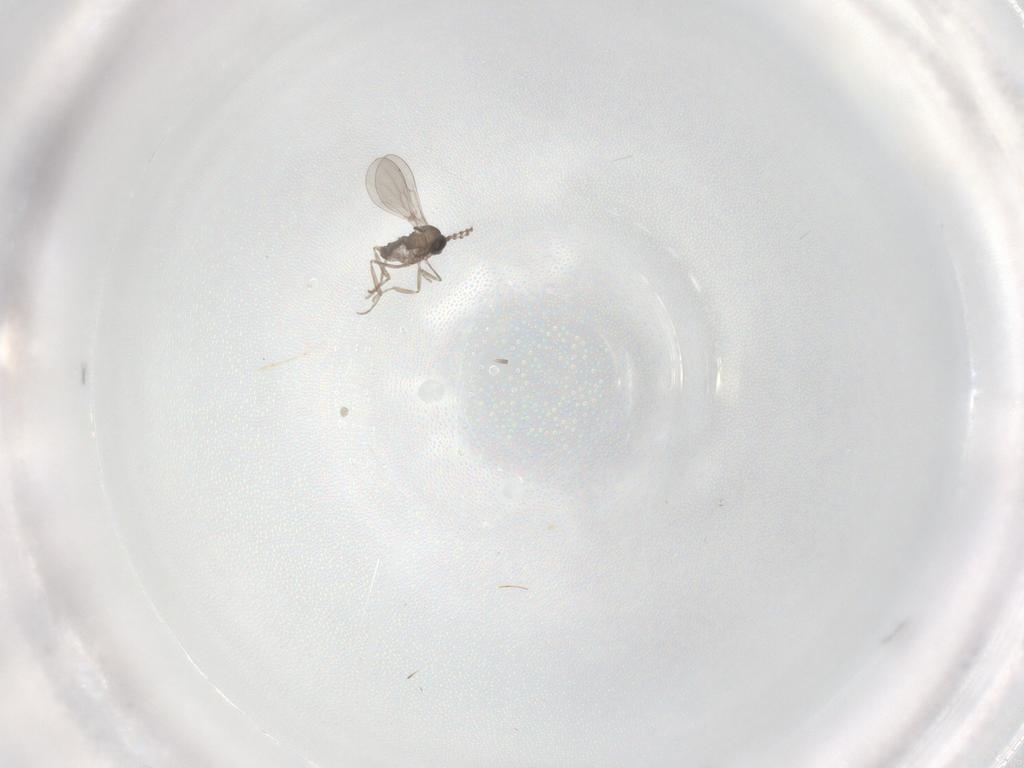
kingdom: Animalia
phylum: Arthropoda
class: Insecta
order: Diptera
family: Cecidomyiidae
